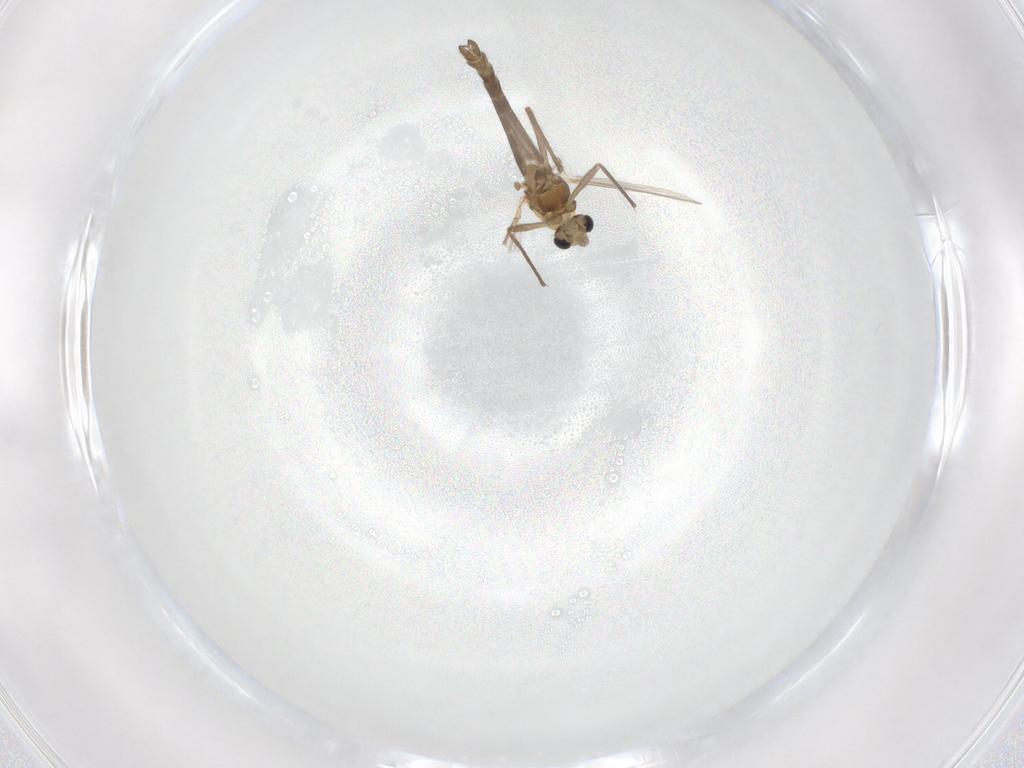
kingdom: Animalia
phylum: Arthropoda
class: Insecta
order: Diptera
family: Chironomidae
